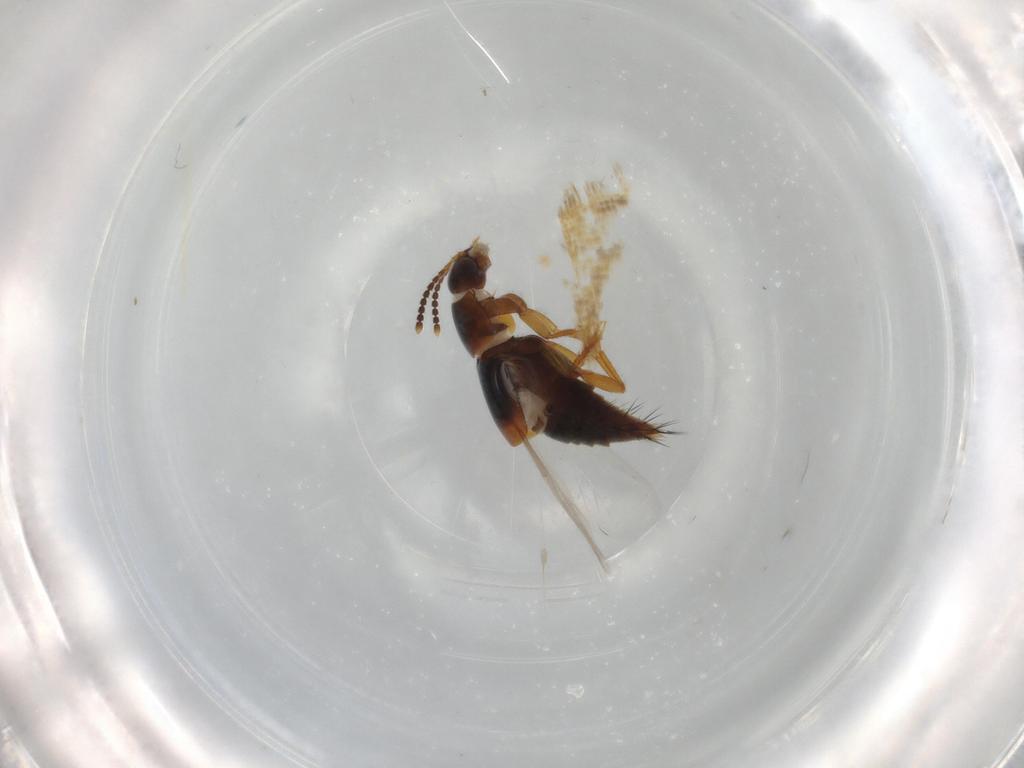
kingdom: Animalia
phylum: Arthropoda
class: Insecta
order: Coleoptera
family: Staphylinidae
